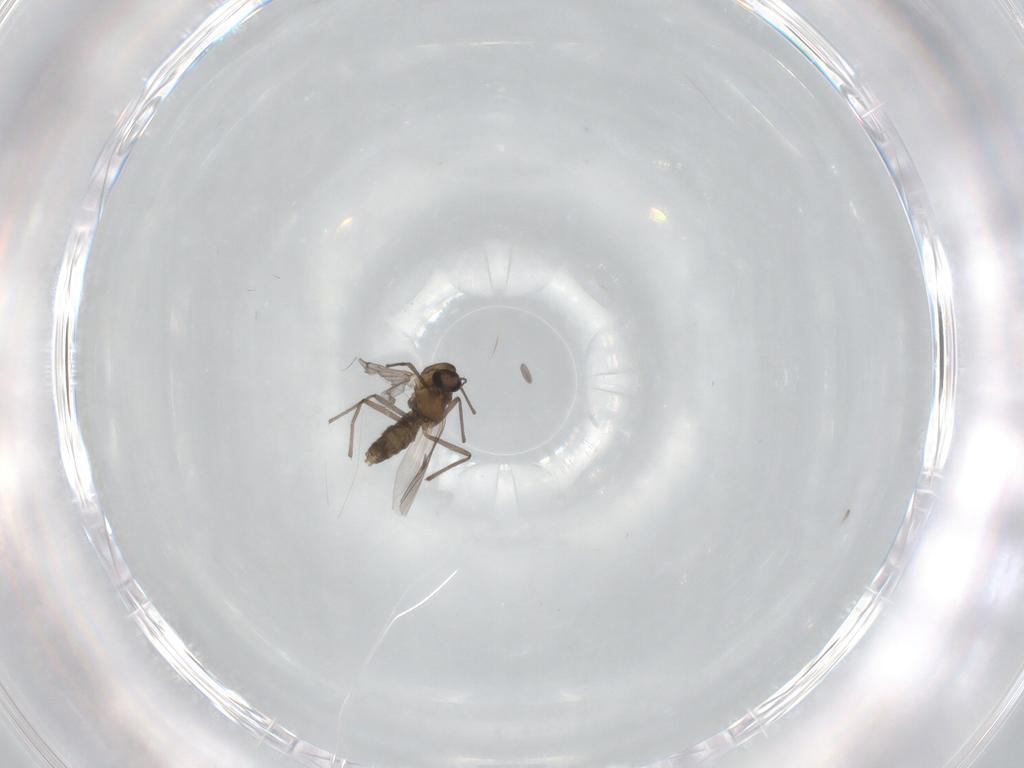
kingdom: Animalia
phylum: Arthropoda
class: Insecta
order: Diptera
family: Chironomidae
